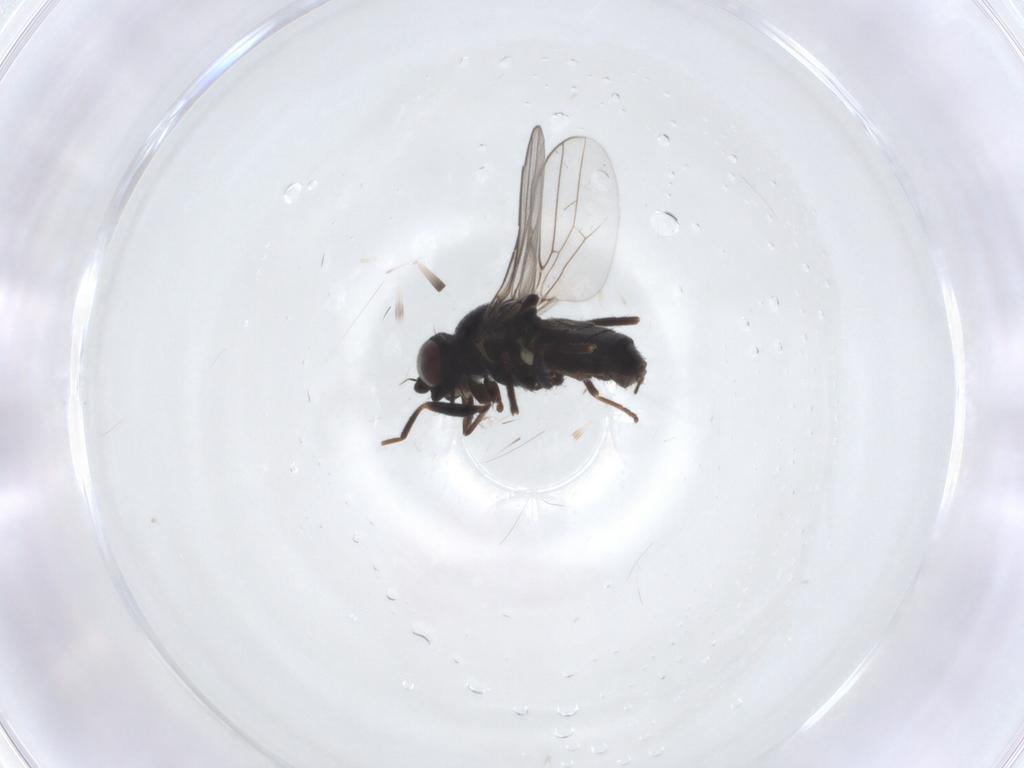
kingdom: Animalia
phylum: Arthropoda
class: Insecta
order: Diptera
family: Chloropidae
